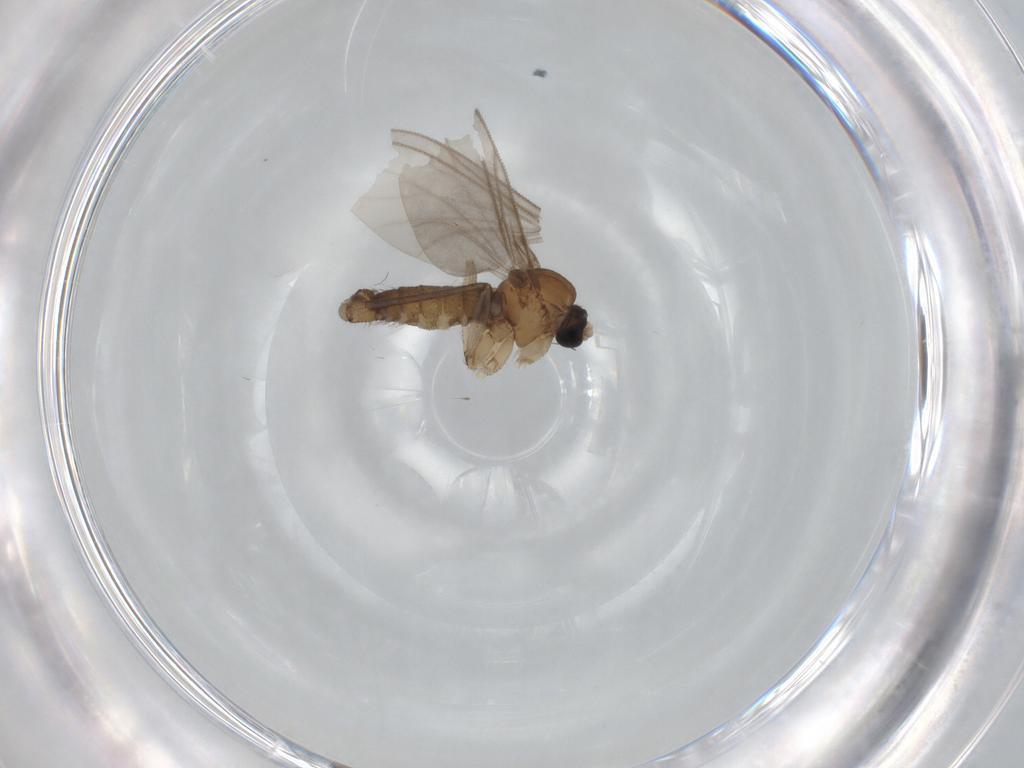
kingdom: Animalia
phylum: Arthropoda
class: Insecta
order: Diptera
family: Sciaridae
